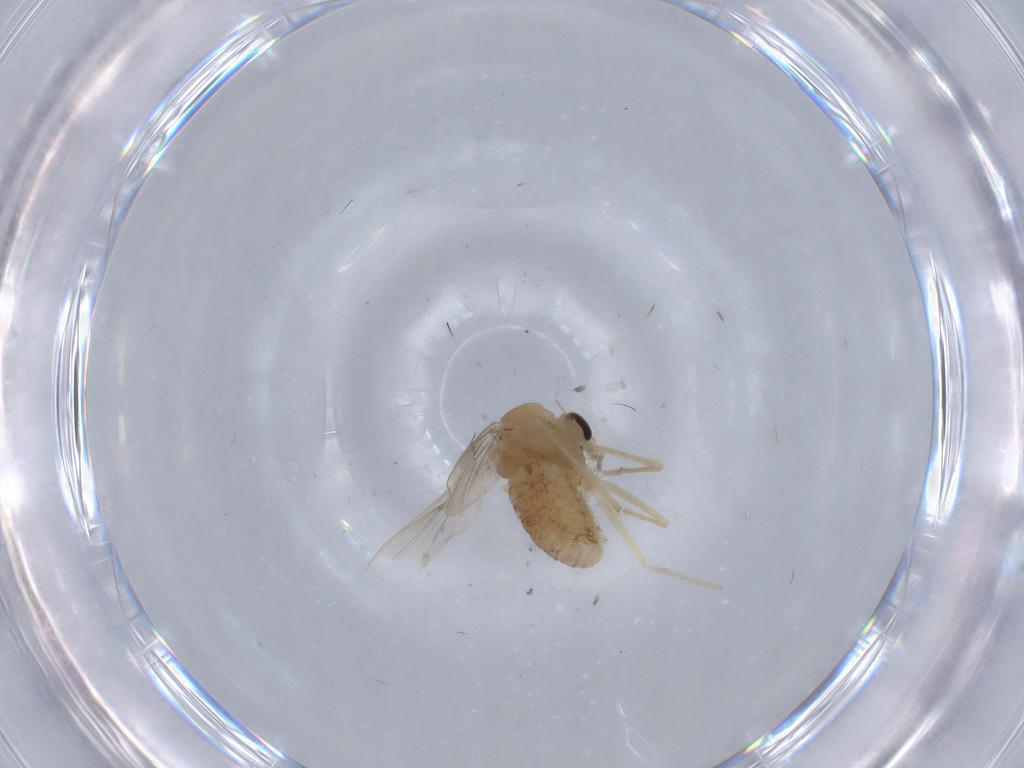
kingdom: Animalia
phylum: Arthropoda
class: Insecta
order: Diptera
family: Chironomidae
